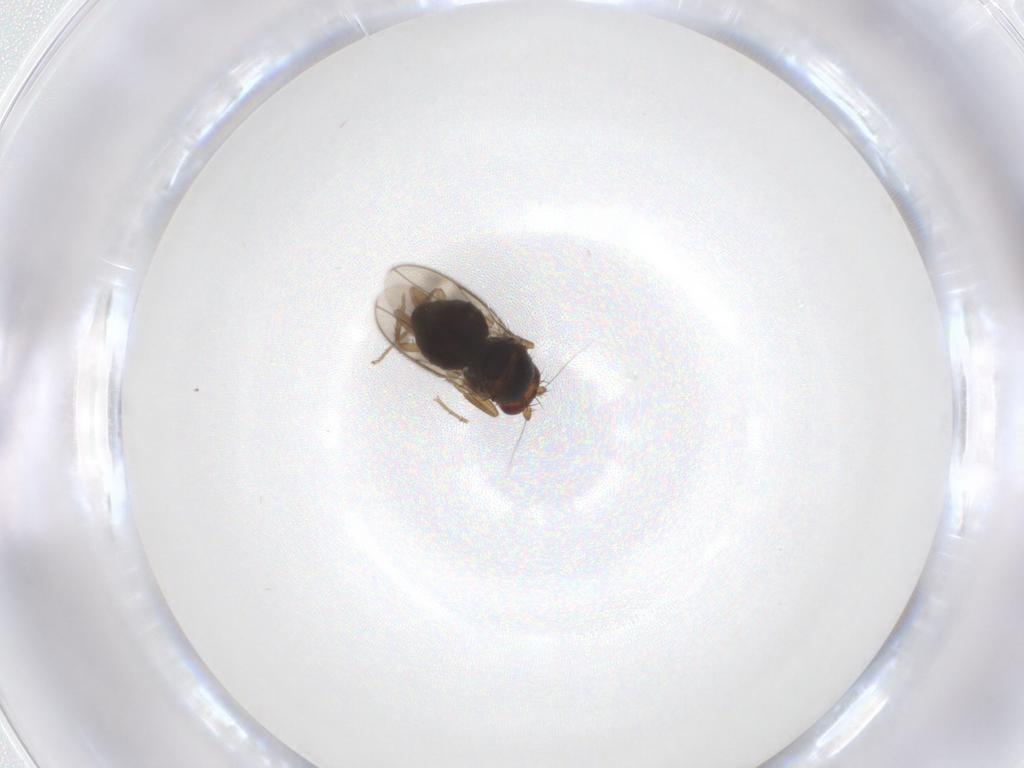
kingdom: Animalia
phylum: Arthropoda
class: Insecta
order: Diptera
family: Sphaeroceridae
